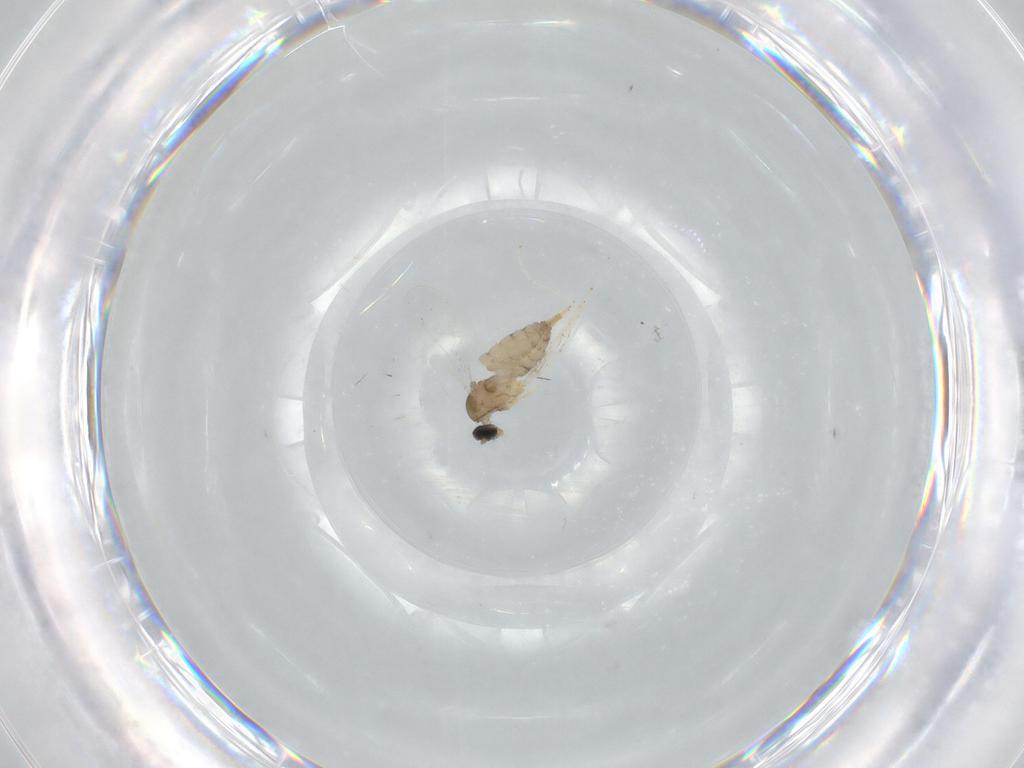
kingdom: Animalia
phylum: Arthropoda
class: Insecta
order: Diptera
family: Cecidomyiidae
